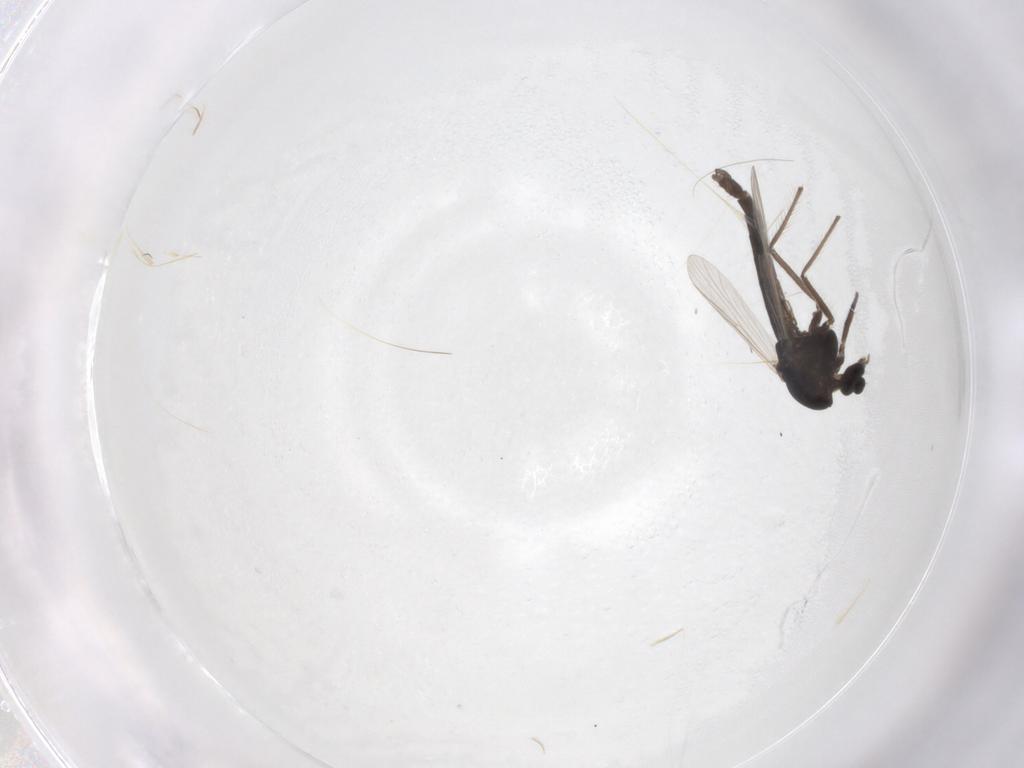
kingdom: Animalia
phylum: Arthropoda
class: Insecta
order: Diptera
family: Chironomidae
